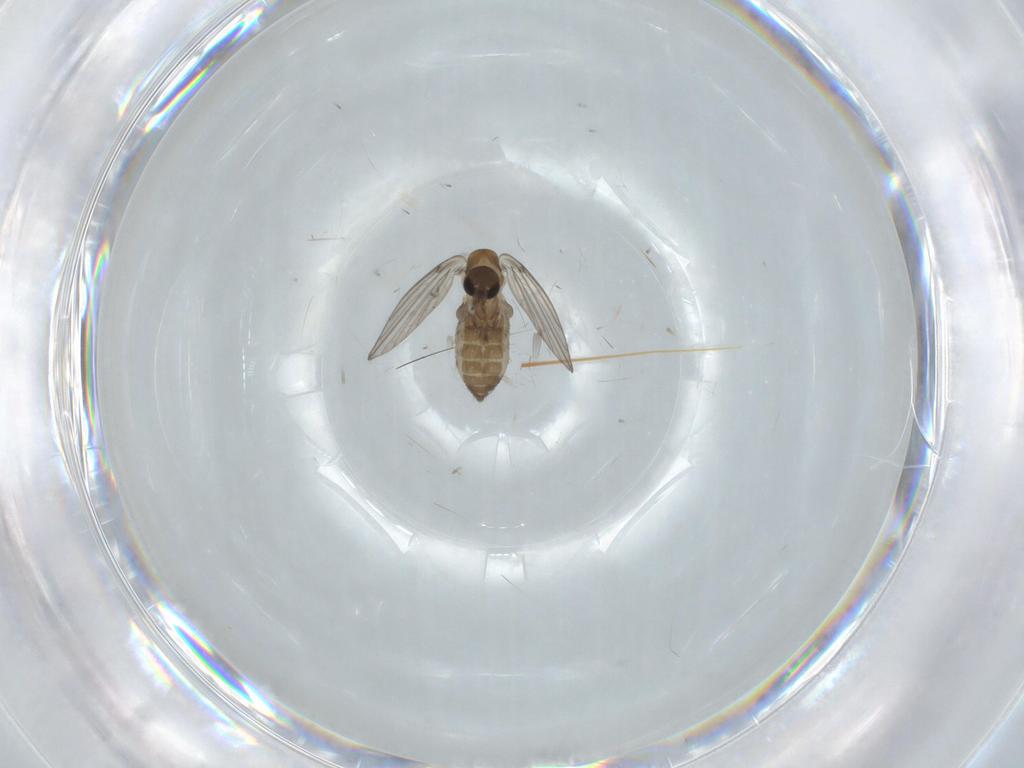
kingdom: Animalia
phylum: Arthropoda
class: Insecta
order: Diptera
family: Psychodidae
